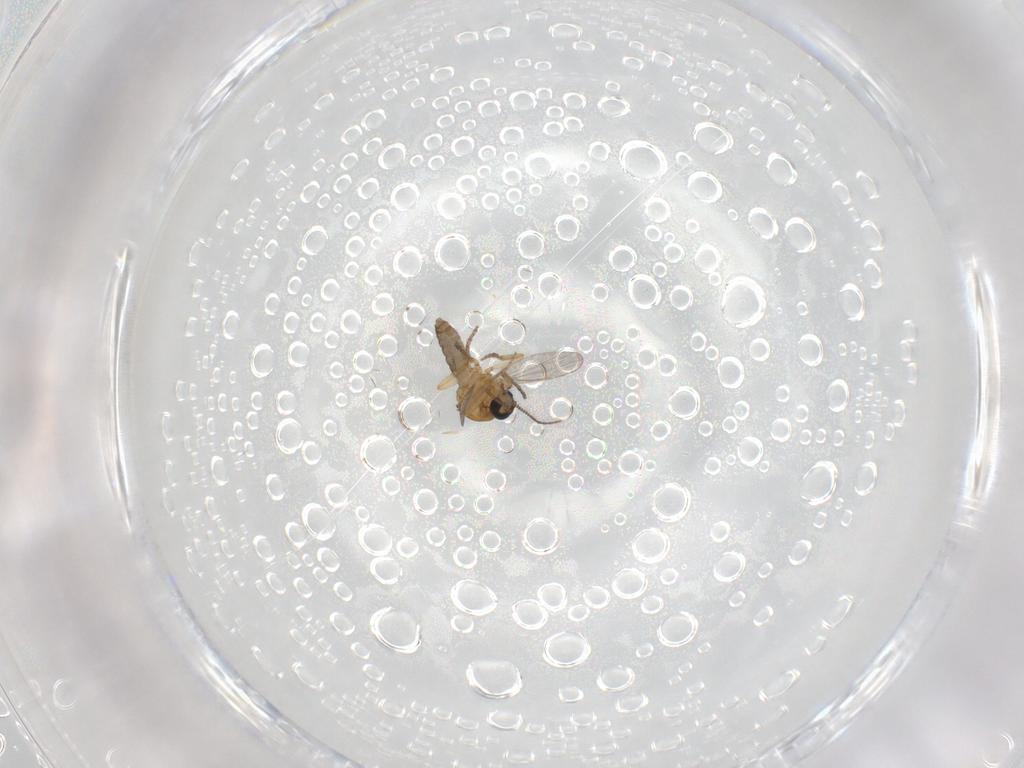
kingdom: Animalia
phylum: Arthropoda
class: Insecta
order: Diptera
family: Ceratopogonidae
